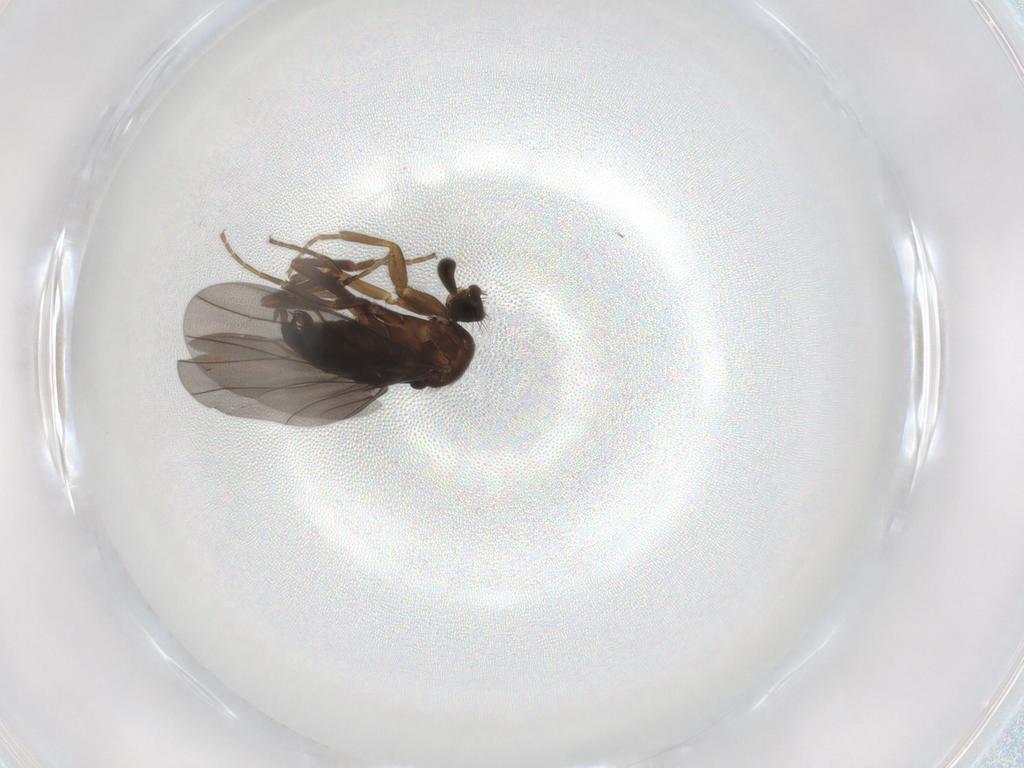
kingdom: Animalia
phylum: Arthropoda
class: Insecta
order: Diptera
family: Phoridae
